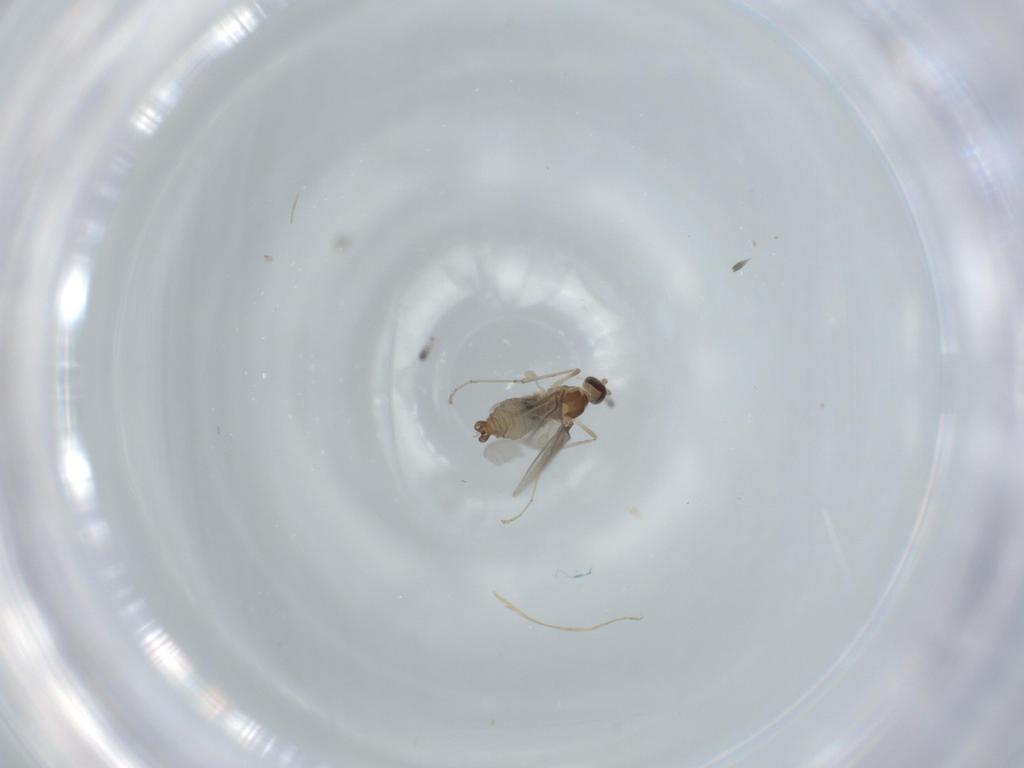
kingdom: Animalia
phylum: Arthropoda
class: Insecta
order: Diptera
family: Cecidomyiidae
